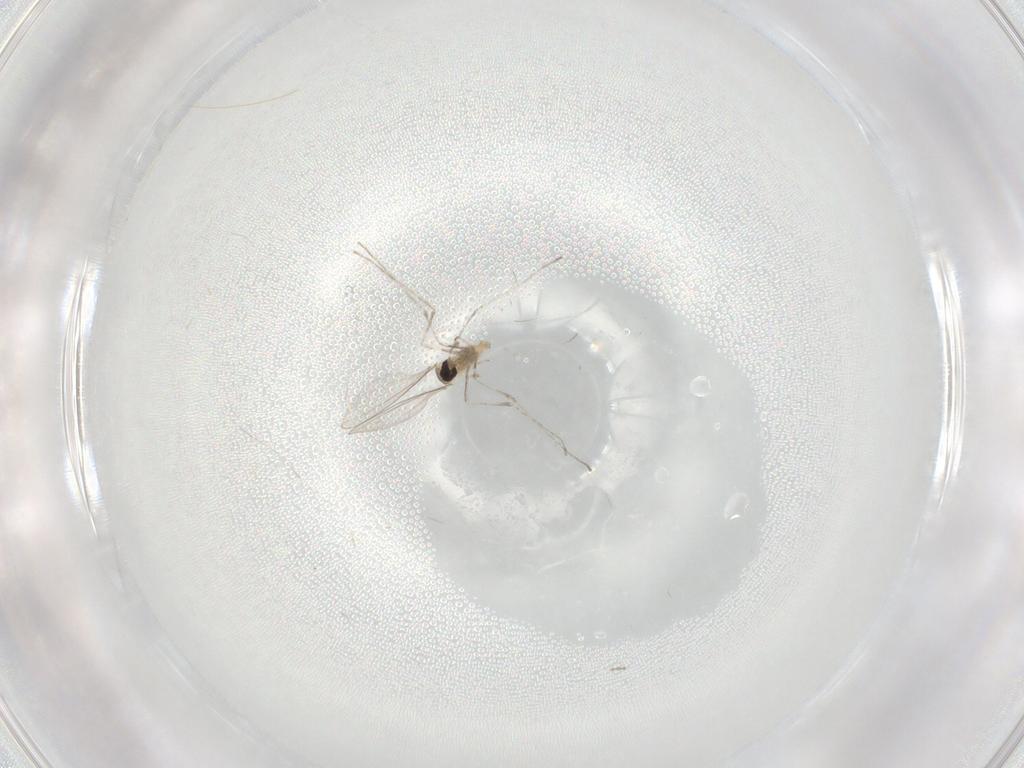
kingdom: Animalia
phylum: Arthropoda
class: Insecta
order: Diptera
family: Cecidomyiidae
